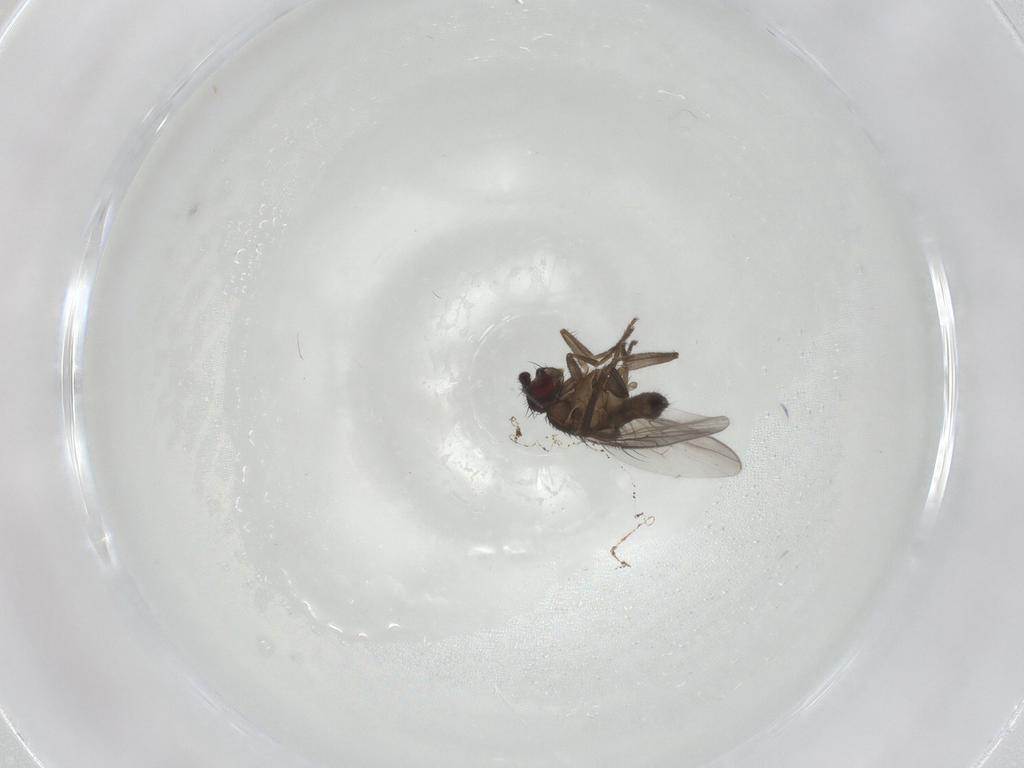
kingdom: Animalia
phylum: Arthropoda
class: Insecta
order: Diptera
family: Sphaeroceridae
